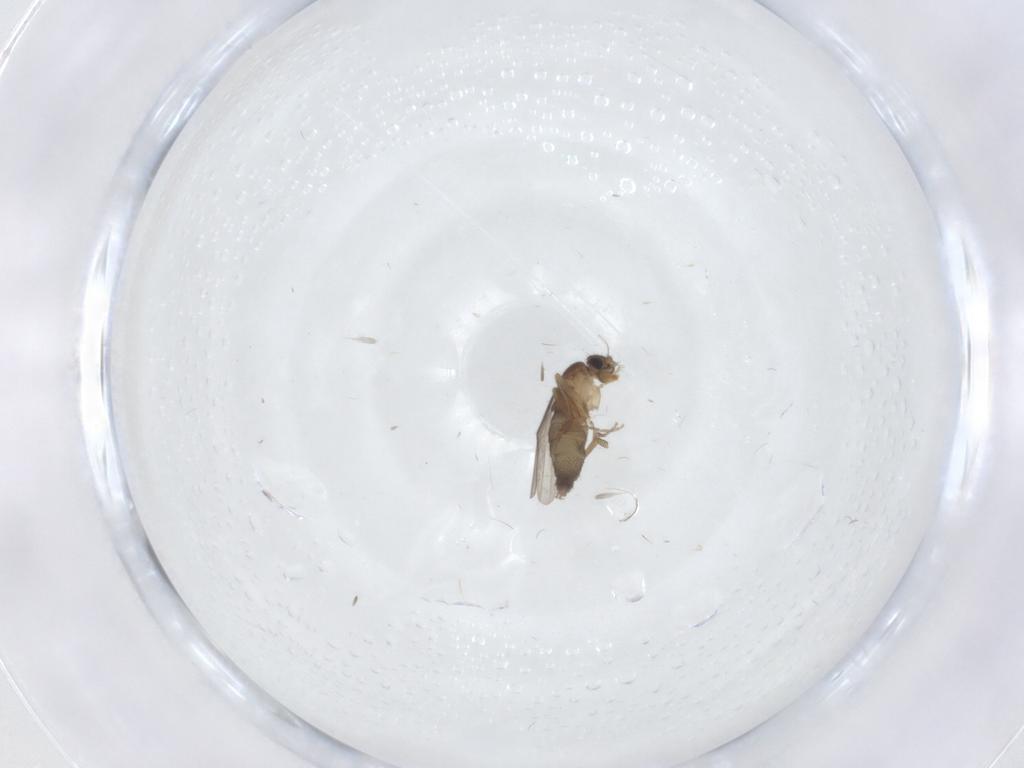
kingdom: Animalia
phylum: Arthropoda
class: Insecta
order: Diptera
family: Phoridae
